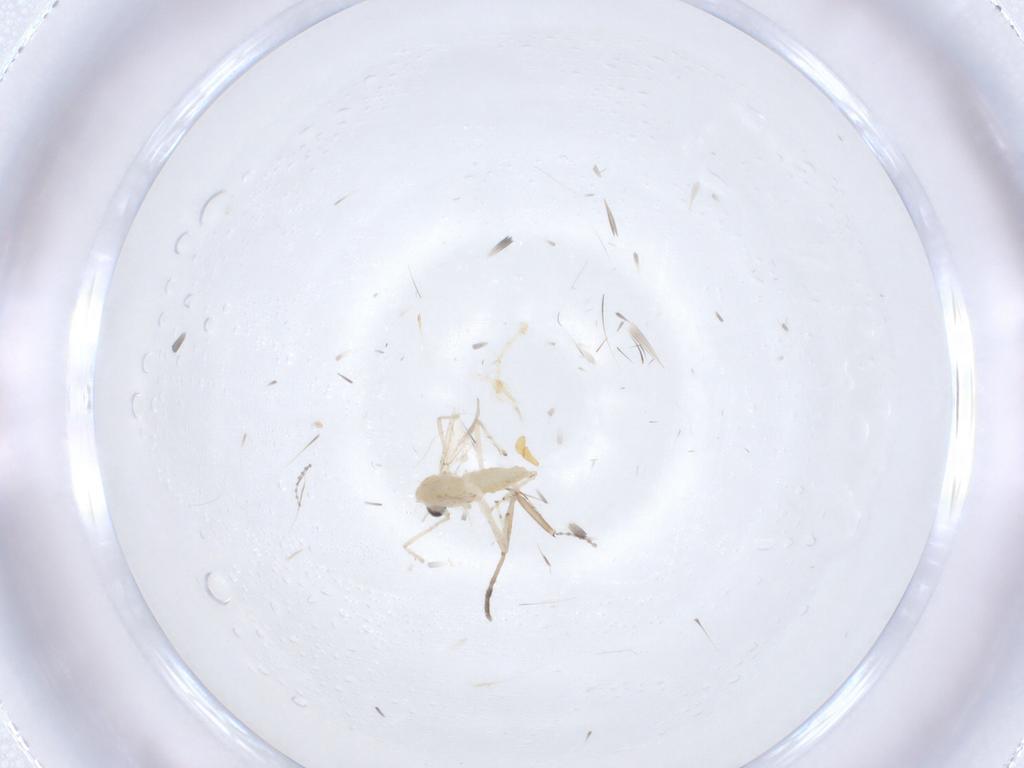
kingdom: Animalia
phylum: Arthropoda
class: Insecta
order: Diptera
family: Chironomidae
